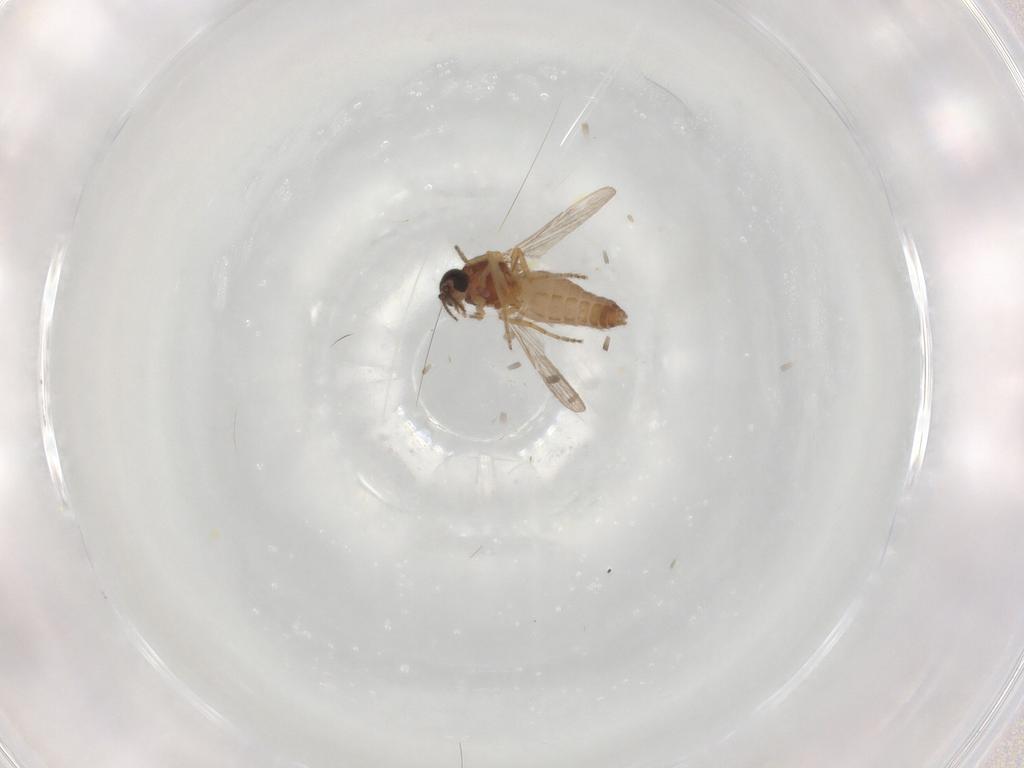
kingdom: Animalia
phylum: Arthropoda
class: Insecta
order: Diptera
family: Ceratopogonidae
